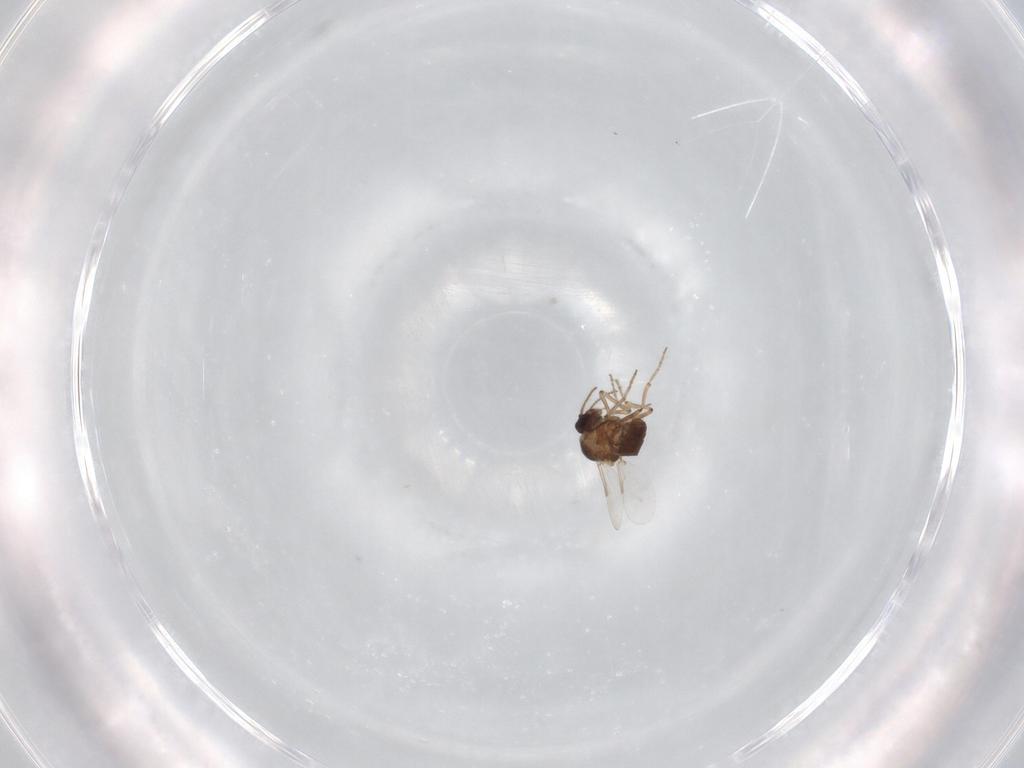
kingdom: Animalia
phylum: Arthropoda
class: Insecta
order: Diptera
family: Ceratopogonidae
